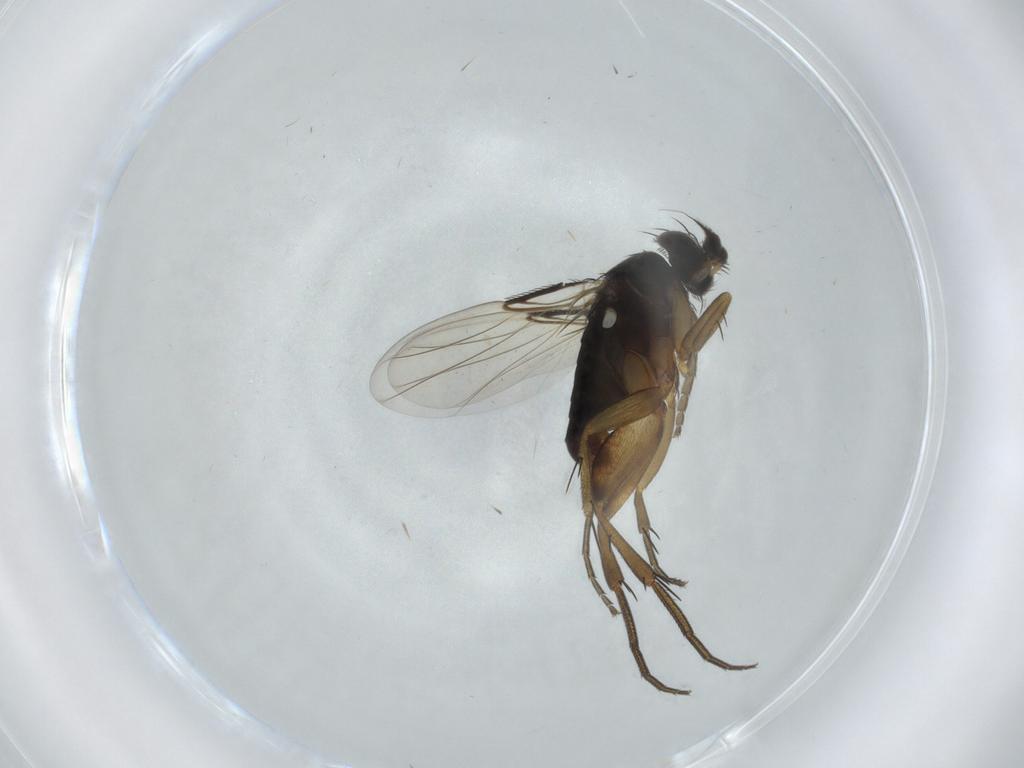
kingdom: Animalia
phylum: Arthropoda
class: Insecta
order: Diptera
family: Phoridae
